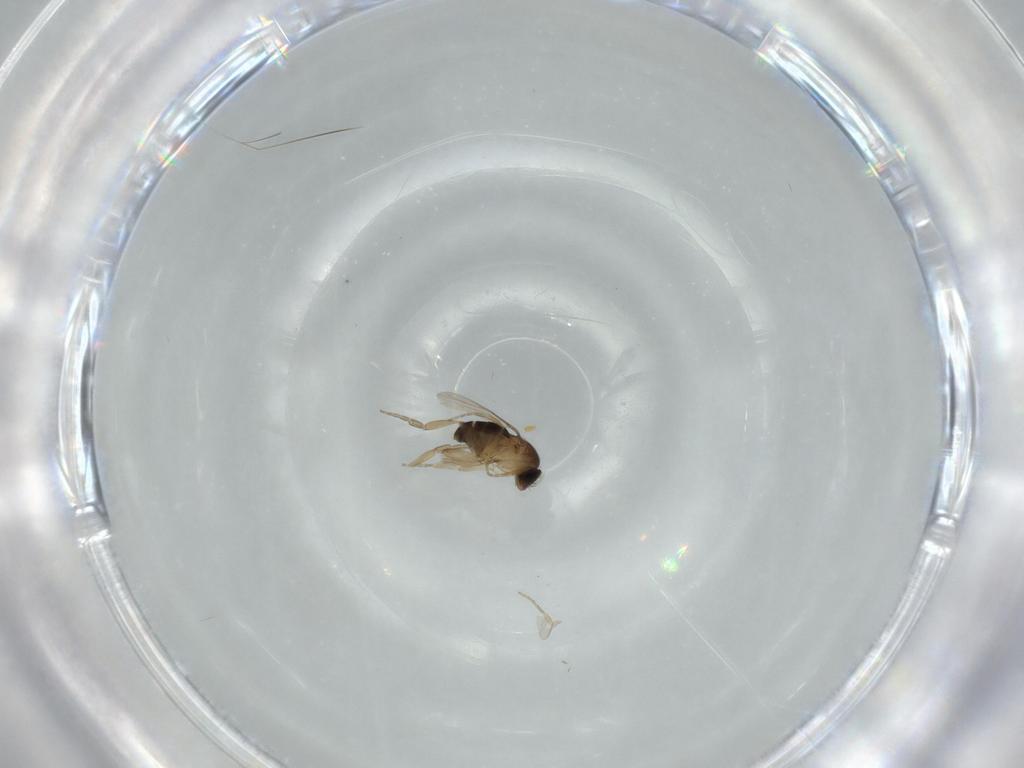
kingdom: Animalia
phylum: Arthropoda
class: Insecta
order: Diptera
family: Phoridae
